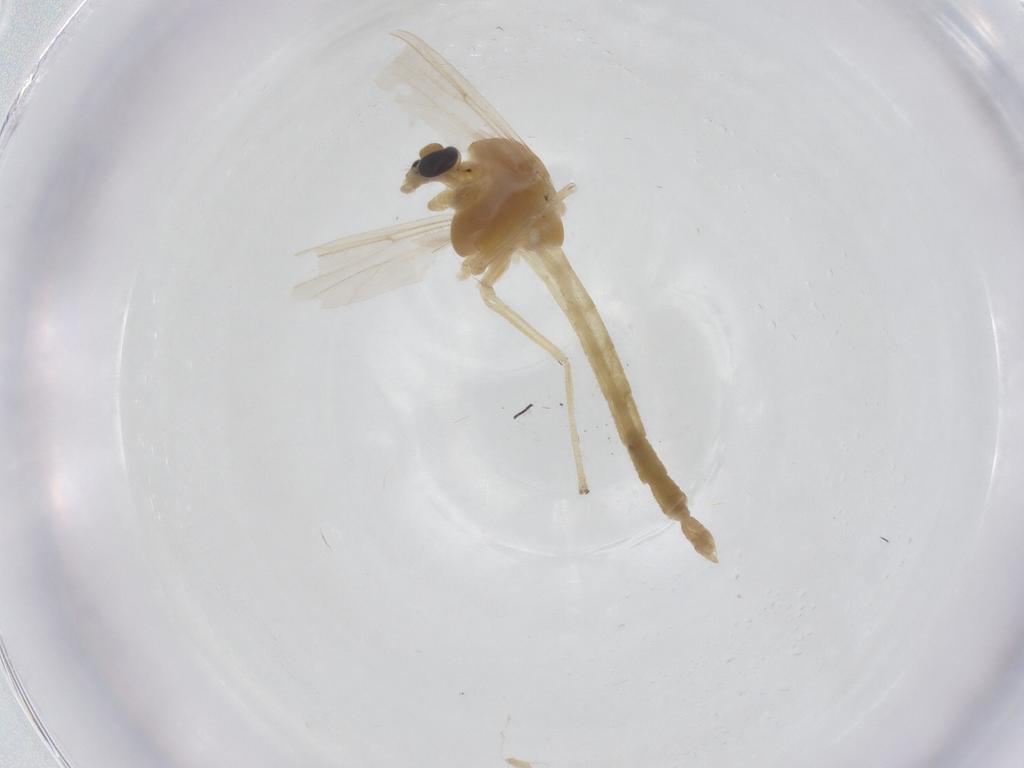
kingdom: Animalia
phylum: Arthropoda
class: Insecta
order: Diptera
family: Chironomidae
